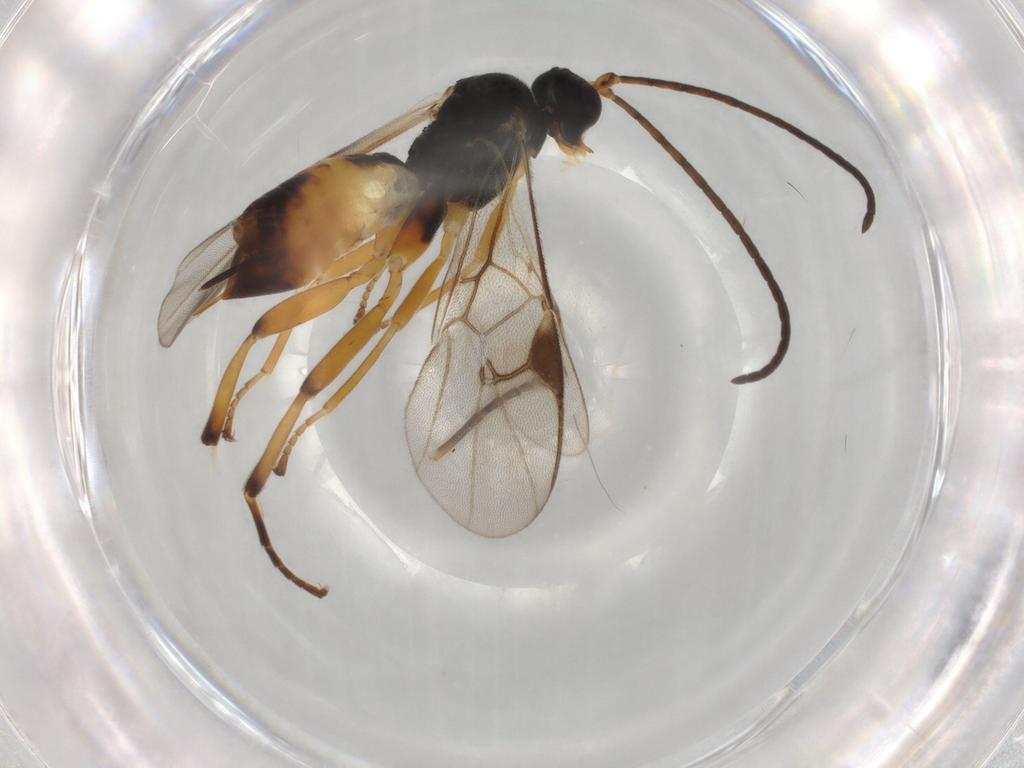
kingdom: Animalia
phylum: Arthropoda
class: Insecta
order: Hymenoptera
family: Braconidae
